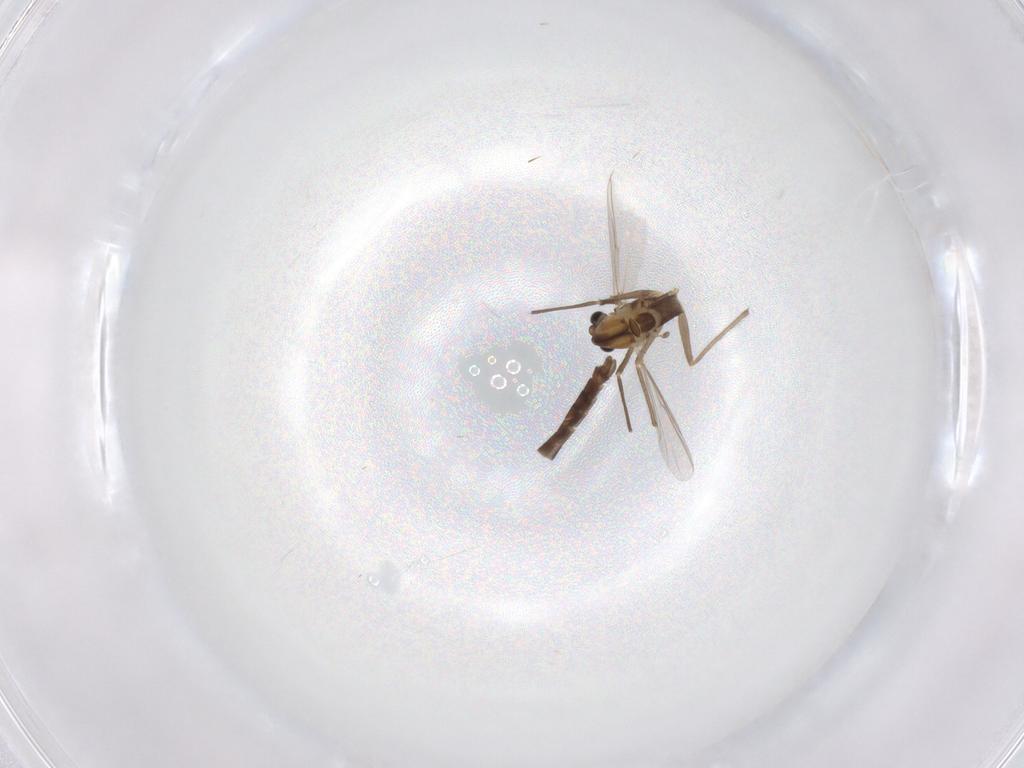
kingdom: Animalia
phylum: Arthropoda
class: Insecta
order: Diptera
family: Chironomidae
